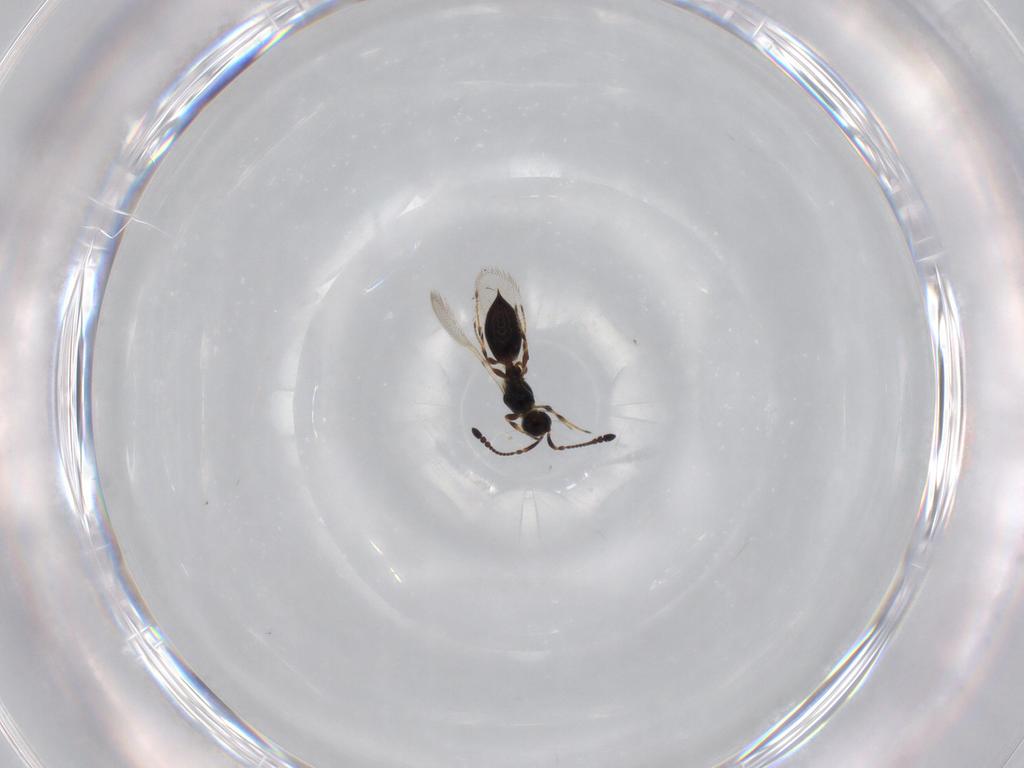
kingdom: Animalia
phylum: Arthropoda
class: Insecta
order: Hymenoptera
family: Diapriidae
